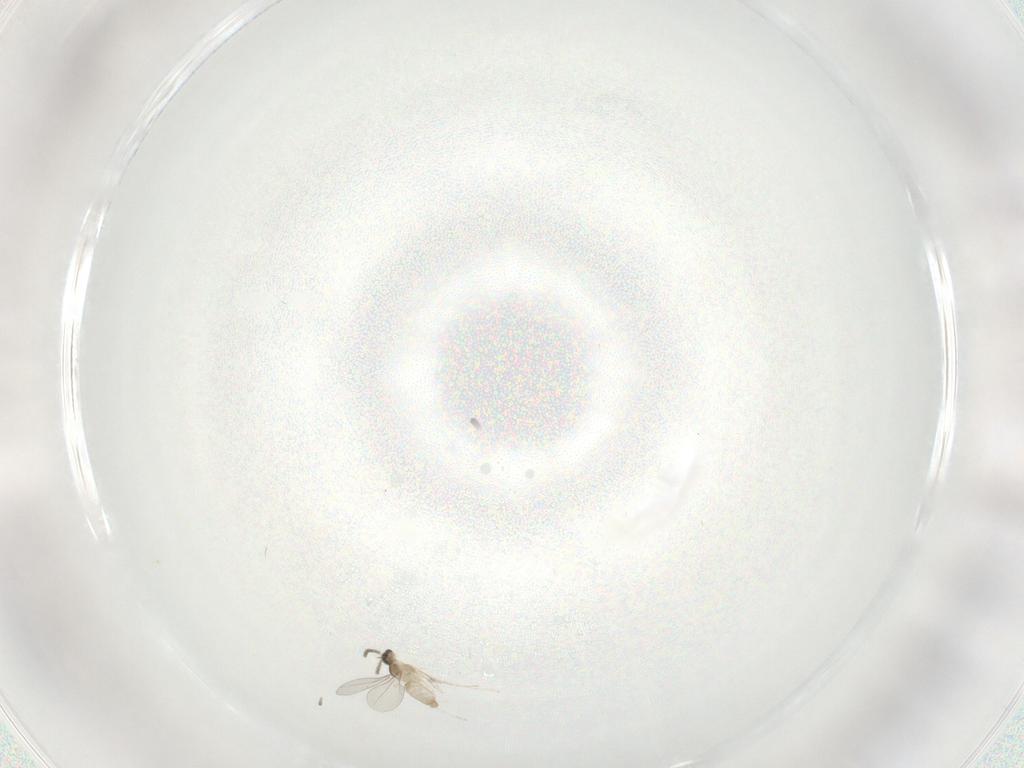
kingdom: Animalia
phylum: Arthropoda
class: Insecta
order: Diptera
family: Cecidomyiidae
